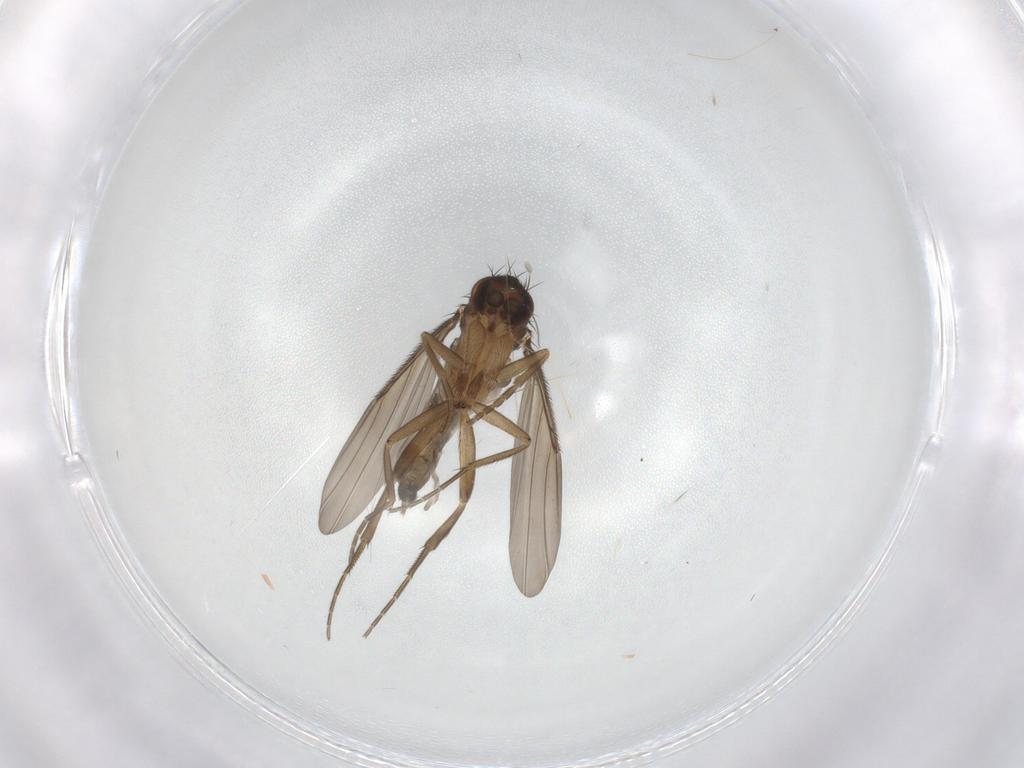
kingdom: Animalia
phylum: Arthropoda
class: Insecta
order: Diptera
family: Phoridae
